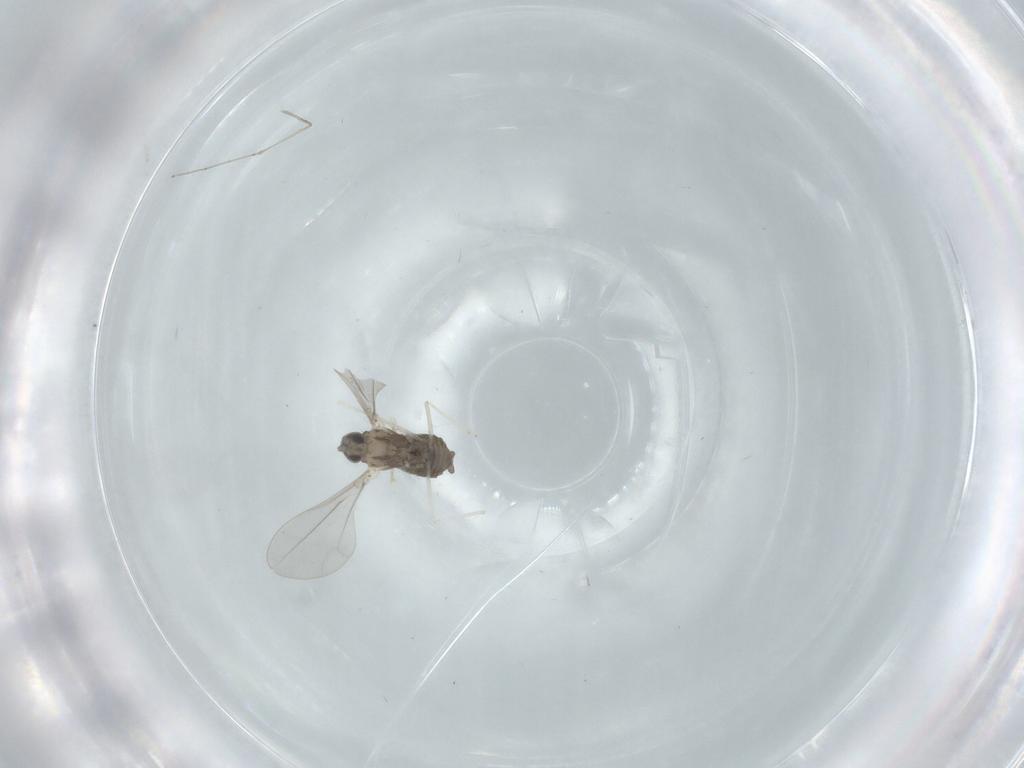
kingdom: Animalia
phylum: Arthropoda
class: Insecta
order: Diptera
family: Cecidomyiidae
